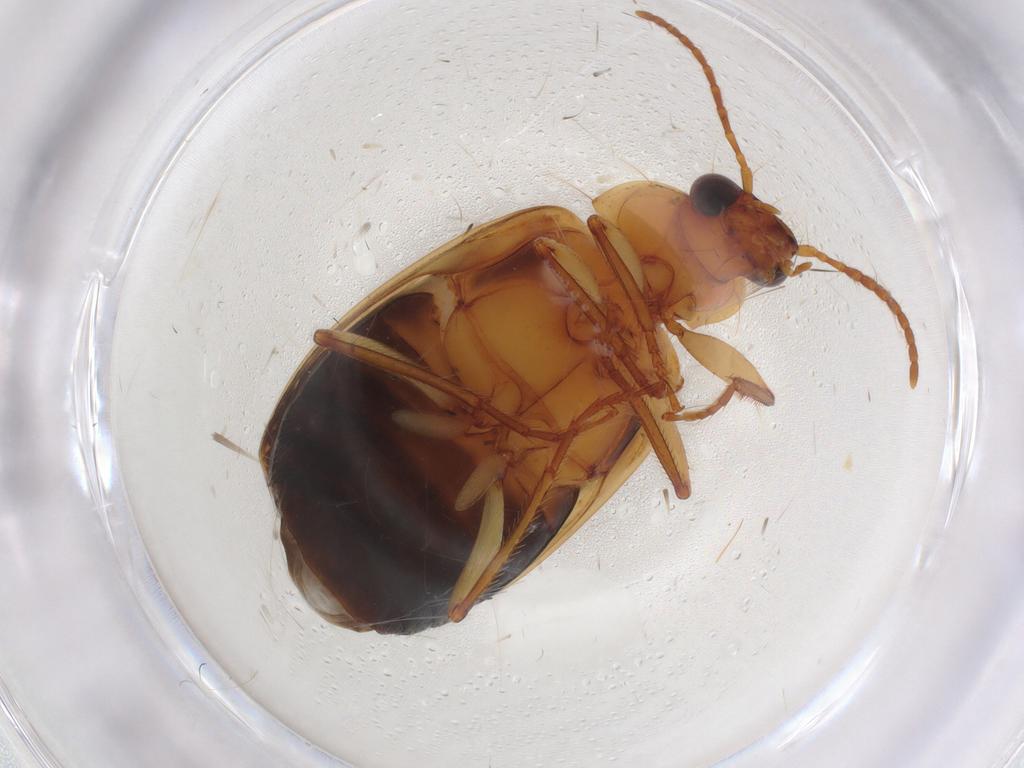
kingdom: Animalia
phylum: Arthropoda
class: Insecta
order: Coleoptera
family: Carabidae
